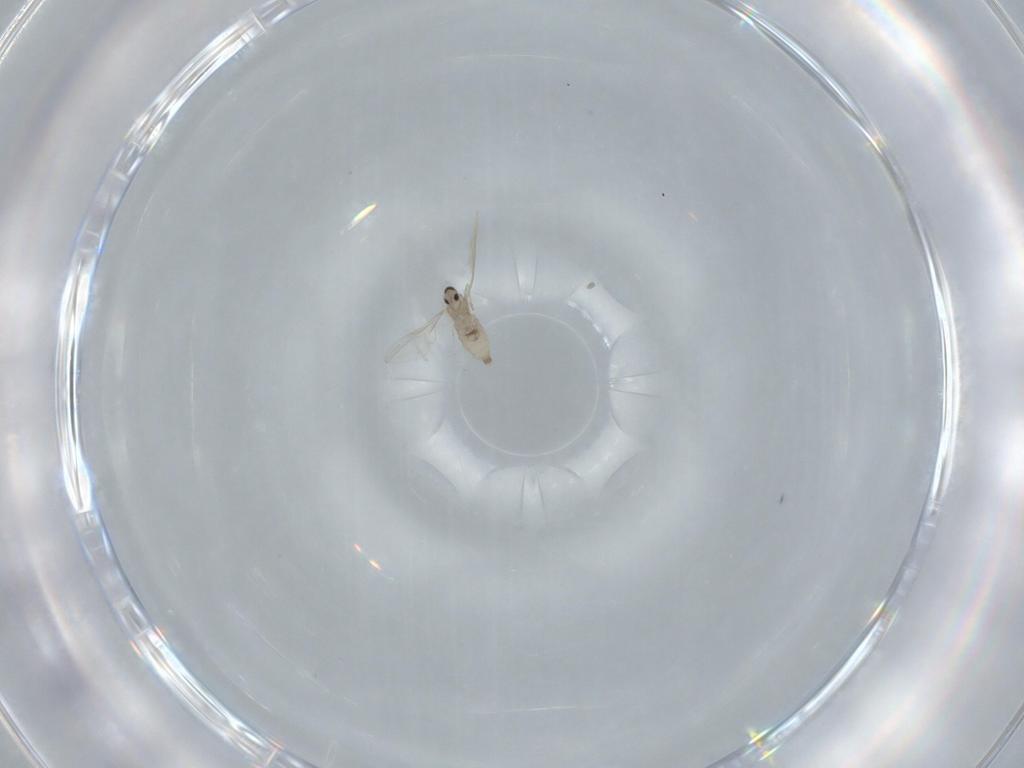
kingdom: Animalia
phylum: Arthropoda
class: Insecta
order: Diptera
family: Cecidomyiidae
